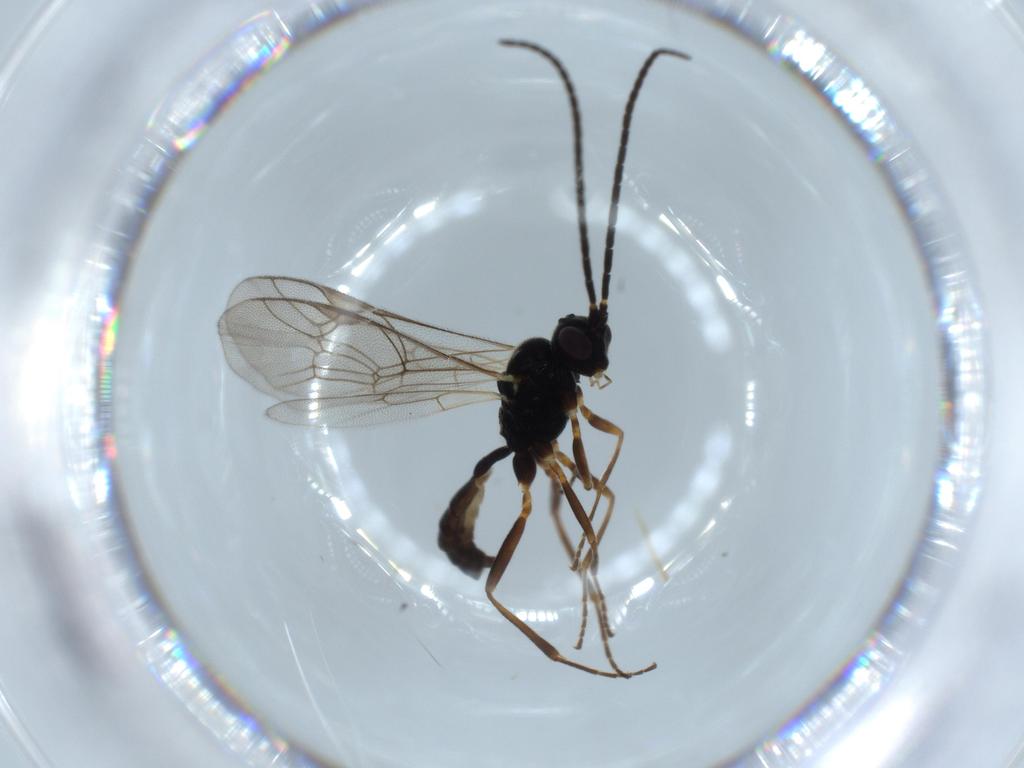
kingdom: Animalia
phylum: Arthropoda
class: Insecta
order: Hymenoptera
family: Ichneumonidae
